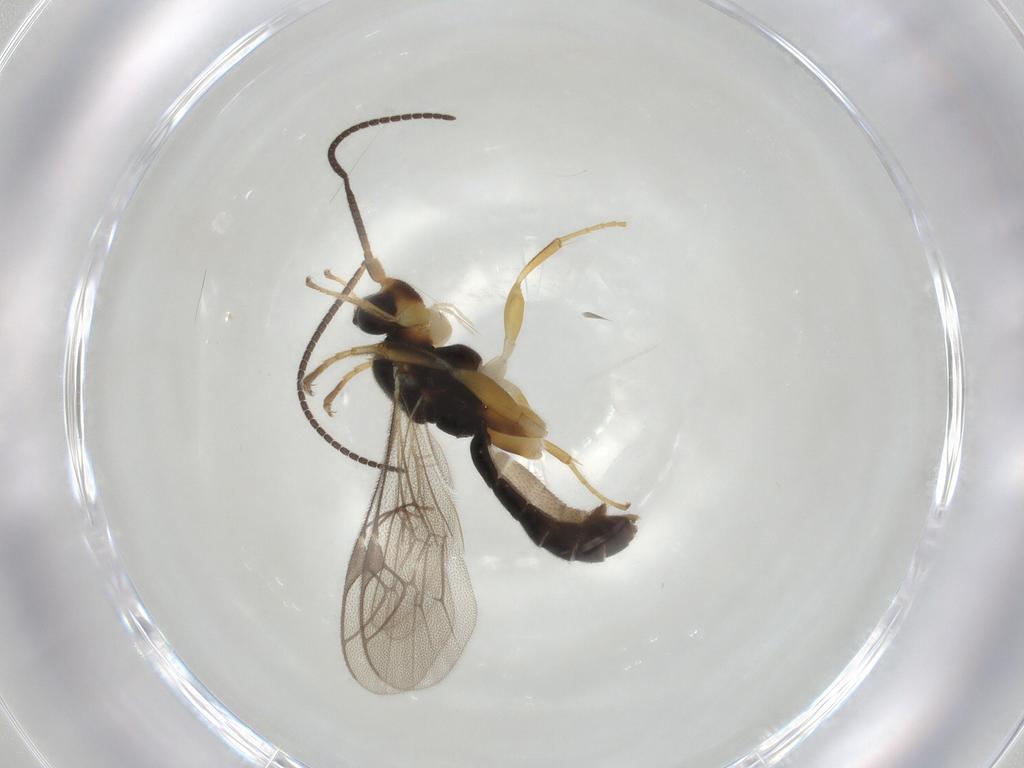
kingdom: Animalia
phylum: Arthropoda
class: Insecta
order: Hymenoptera
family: Ichneumonidae
